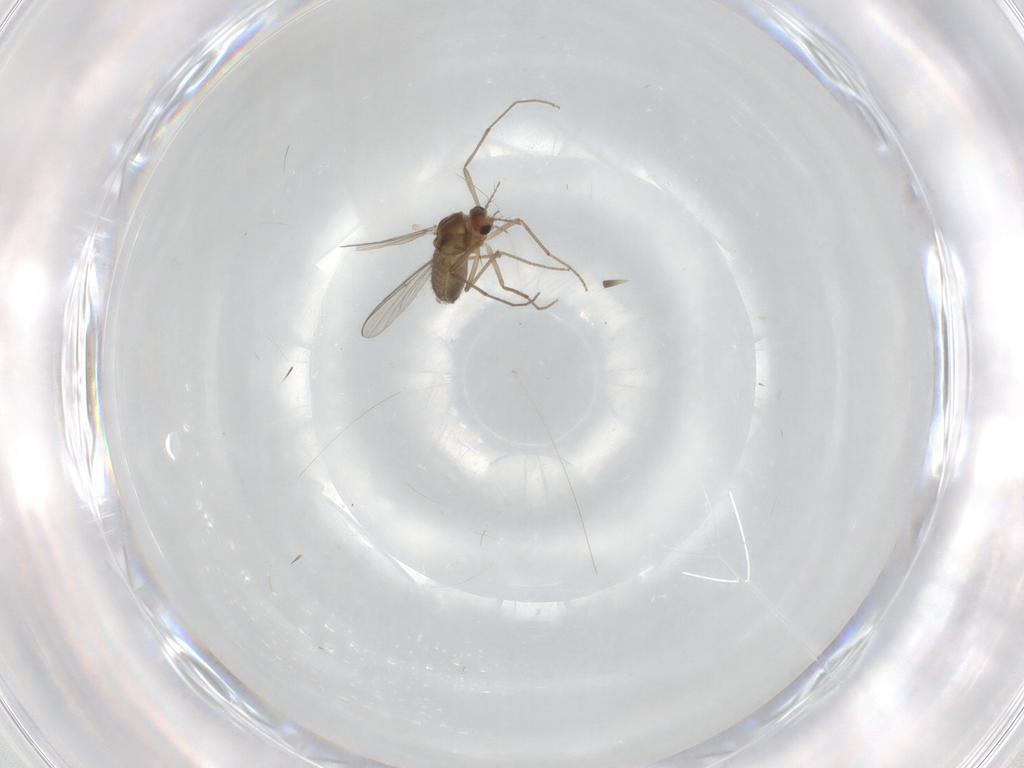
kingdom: Animalia
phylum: Arthropoda
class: Insecta
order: Diptera
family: Chironomidae
